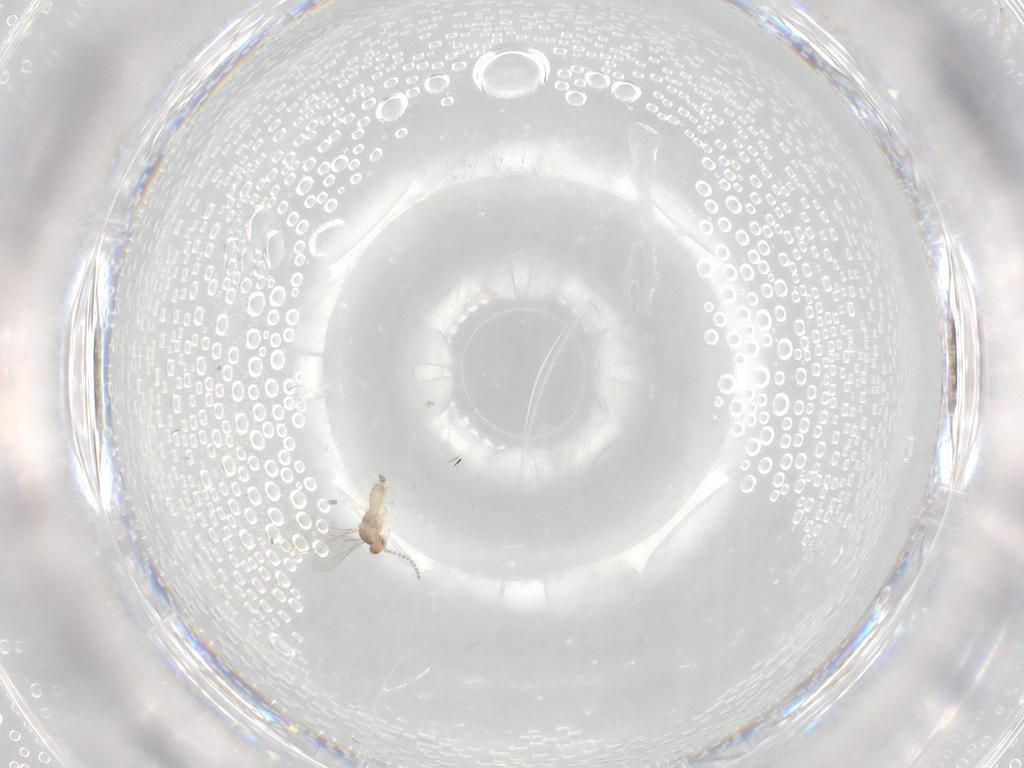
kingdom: Animalia
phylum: Arthropoda
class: Insecta
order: Diptera
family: Cecidomyiidae
